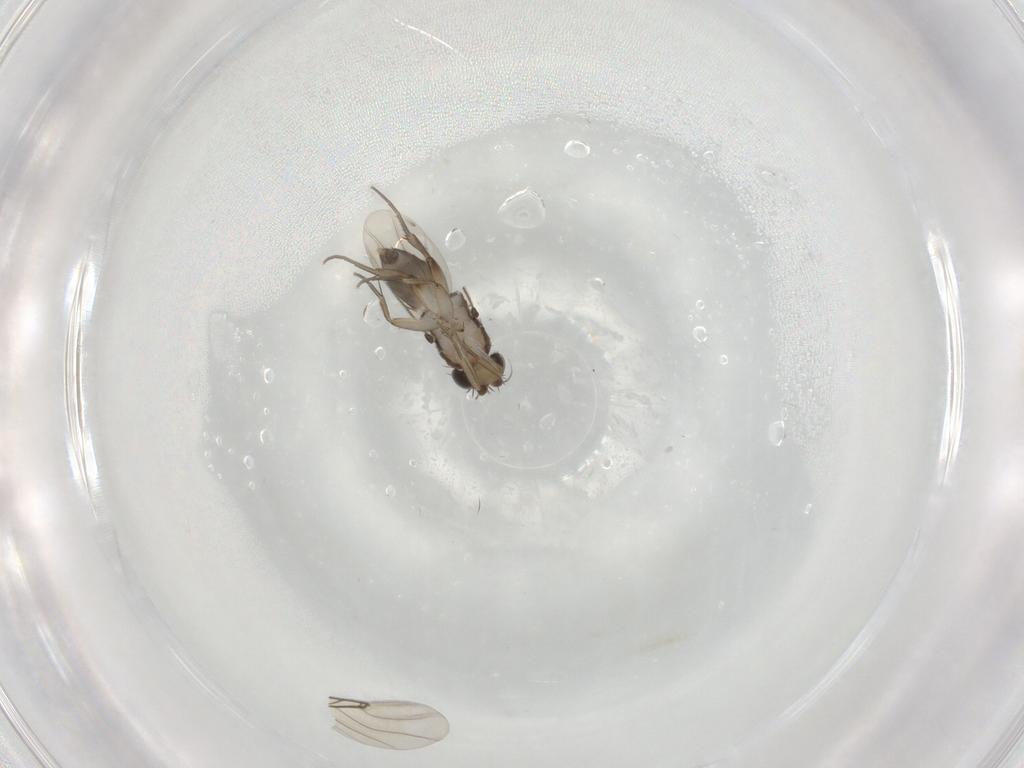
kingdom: Animalia
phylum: Arthropoda
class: Insecta
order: Diptera
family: Phoridae
